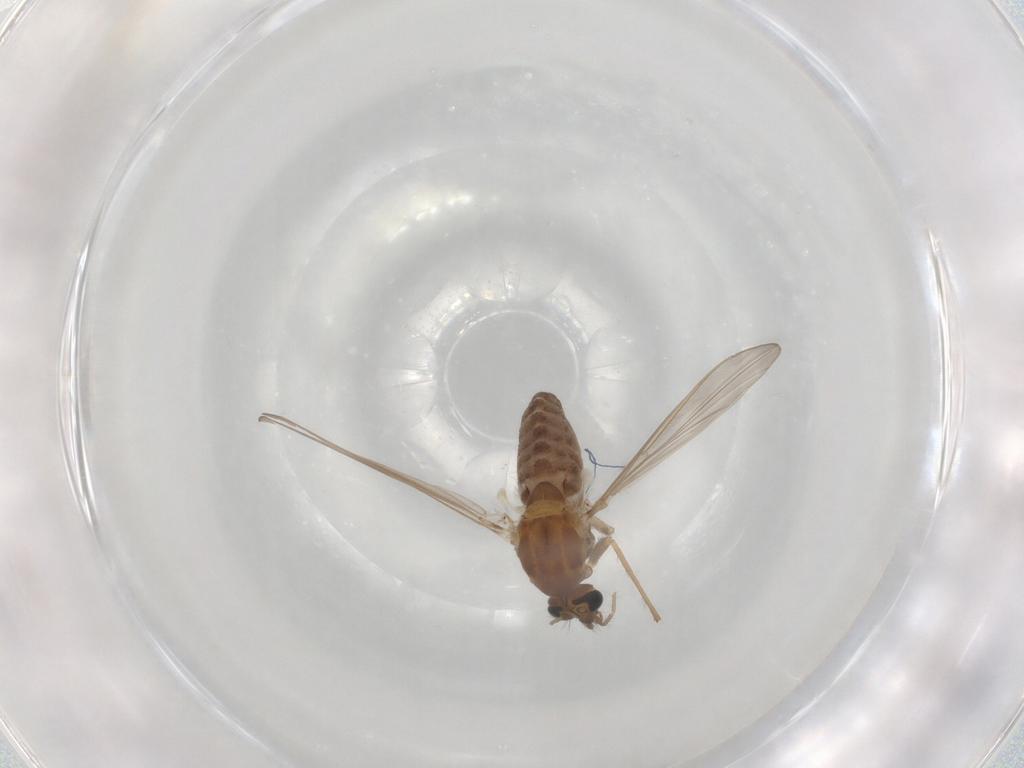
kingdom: Animalia
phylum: Arthropoda
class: Insecta
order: Diptera
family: Chironomidae
